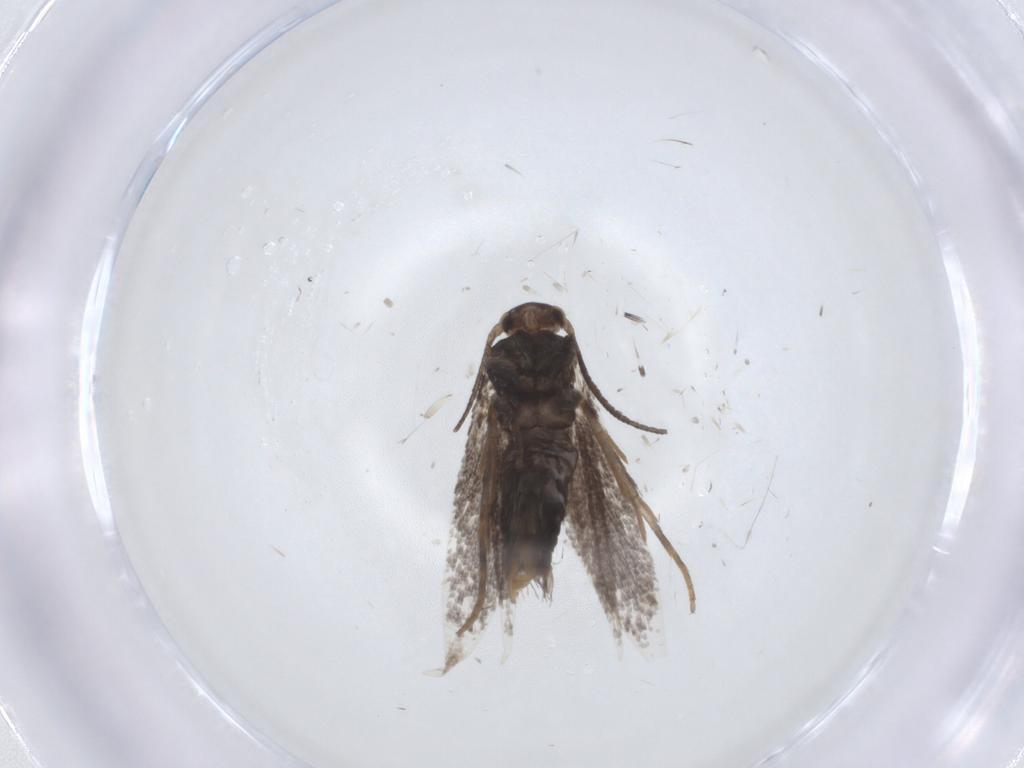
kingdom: Animalia
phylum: Arthropoda
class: Insecta
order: Lepidoptera
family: Elachistidae
